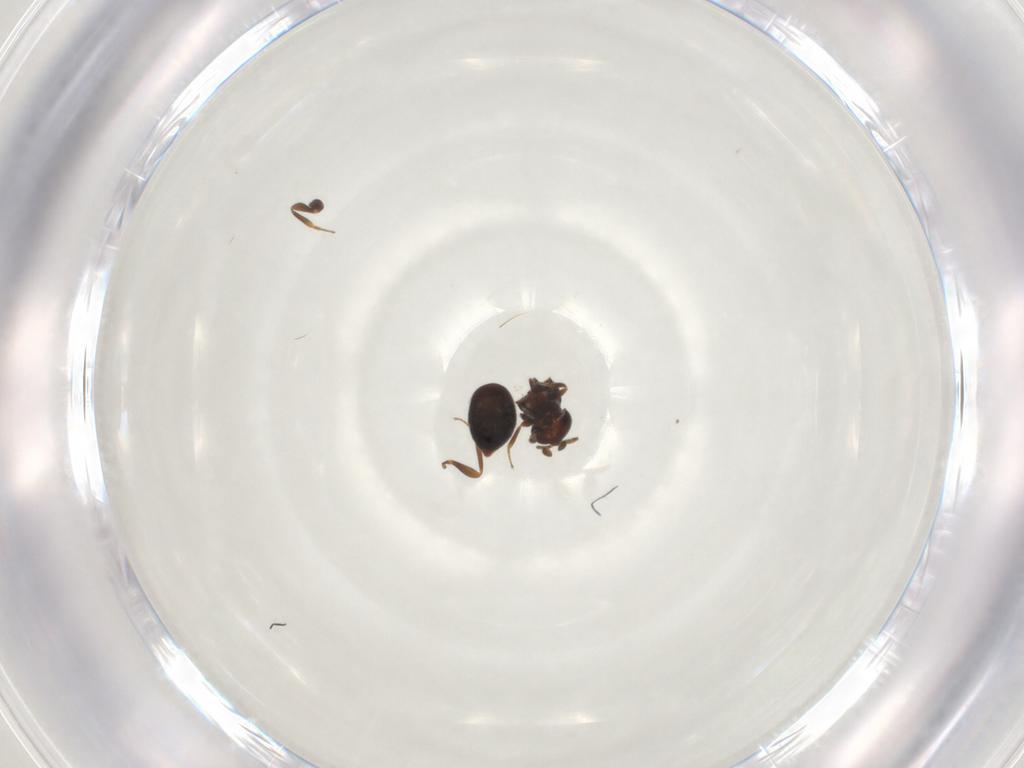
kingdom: Animalia
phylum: Arthropoda
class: Insecta
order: Hymenoptera
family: Scelionidae
